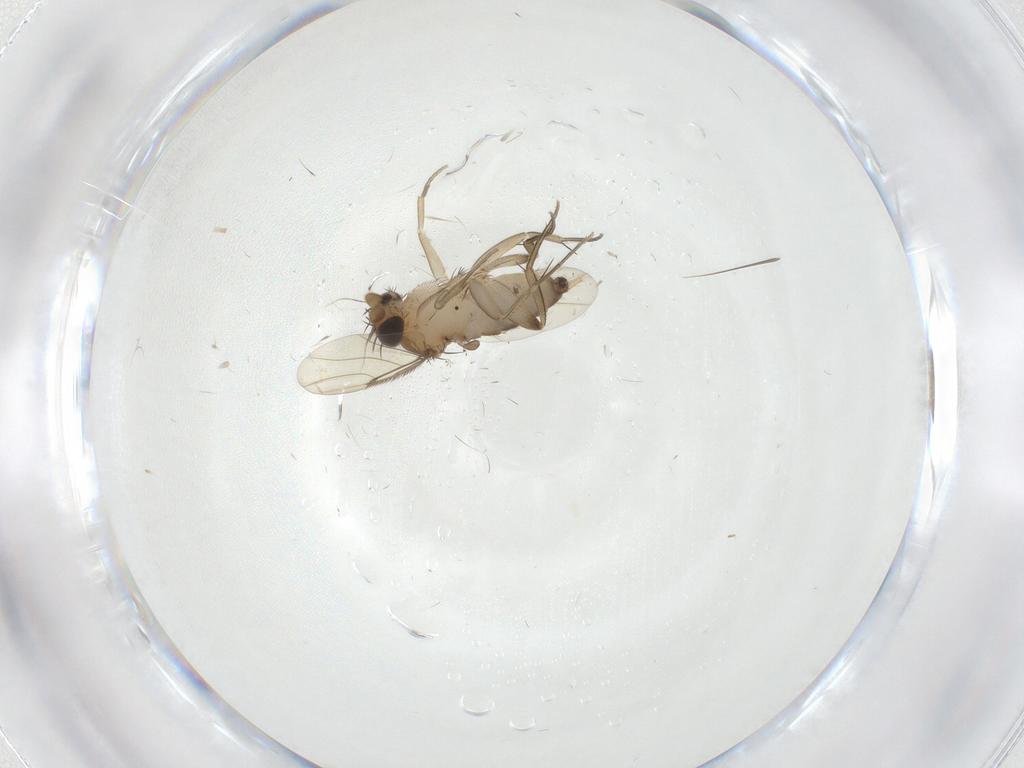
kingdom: Animalia
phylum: Arthropoda
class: Insecta
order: Diptera
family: Phoridae
